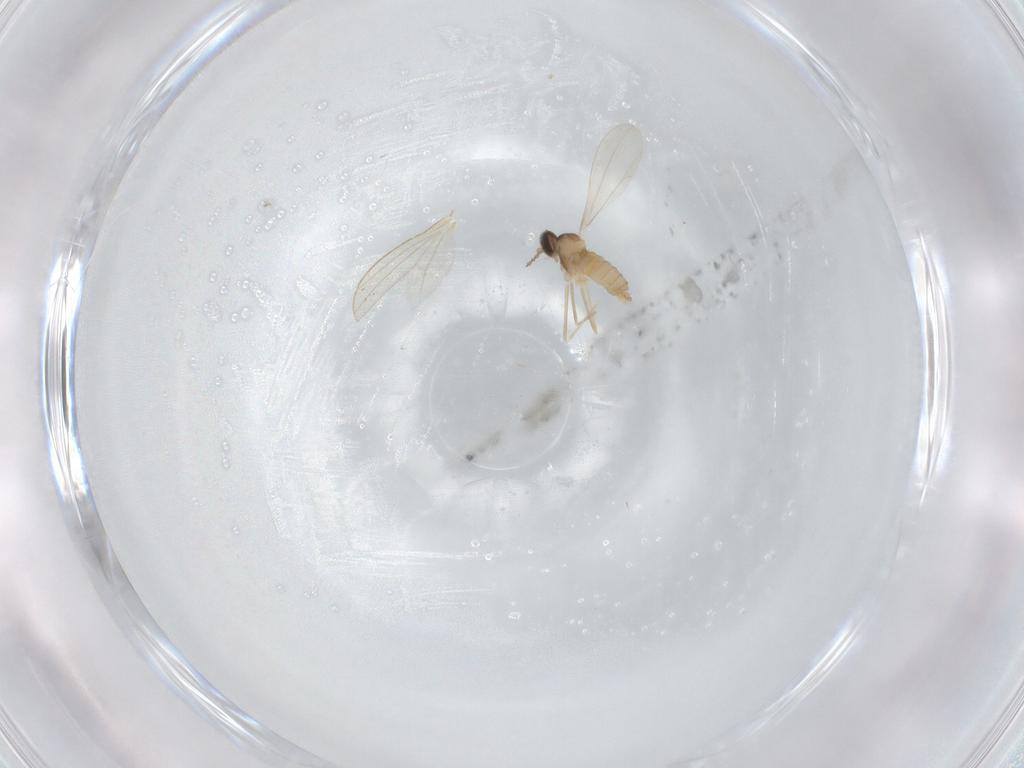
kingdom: Animalia
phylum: Arthropoda
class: Insecta
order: Diptera
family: Cecidomyiidae
